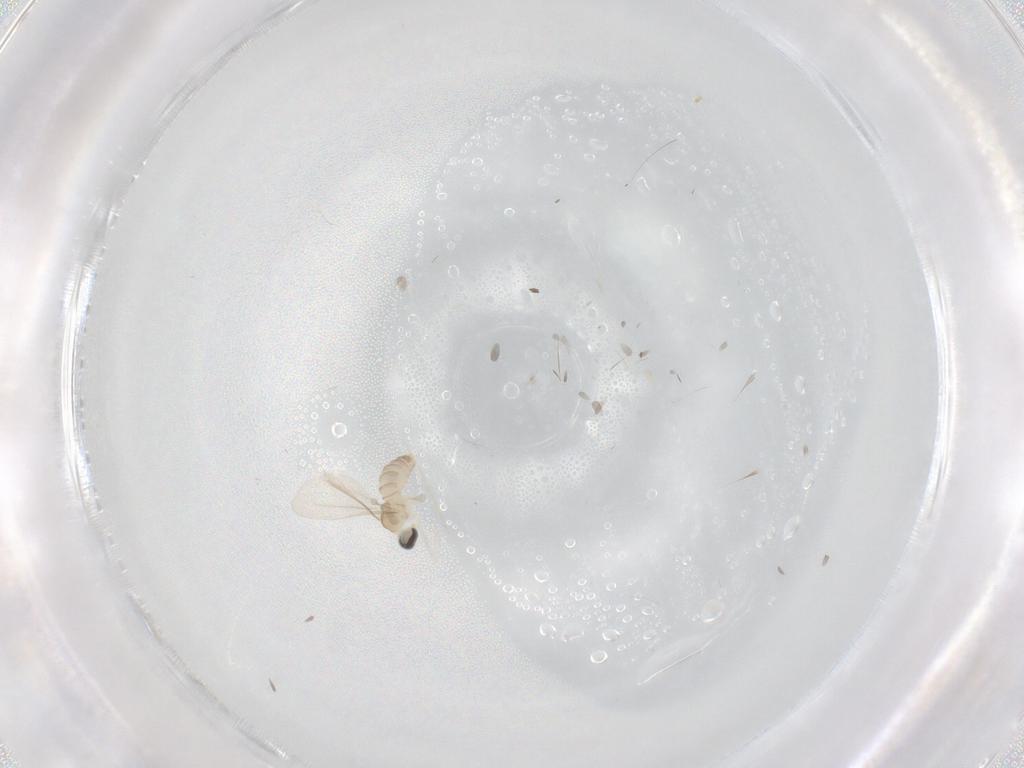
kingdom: Animalia
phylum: Arthropoda
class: Insecta
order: Diptera
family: Cecidomyiidae
